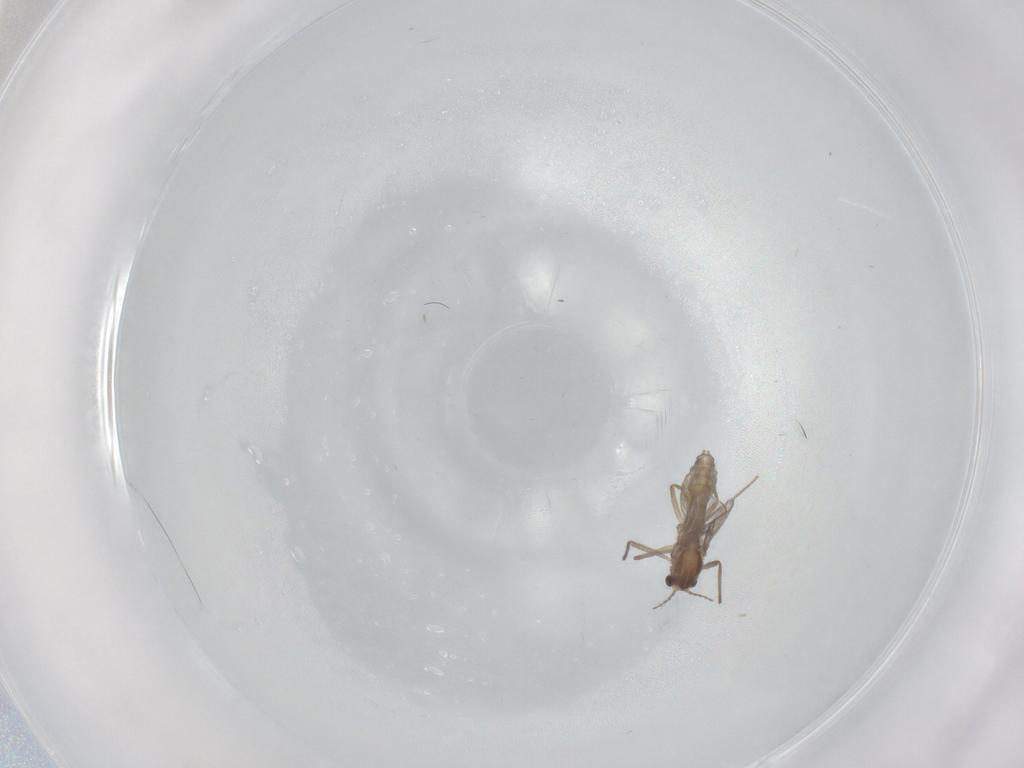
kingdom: Animalia
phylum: Arthropoda
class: Insecta
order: Diptera
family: Chironomidae
